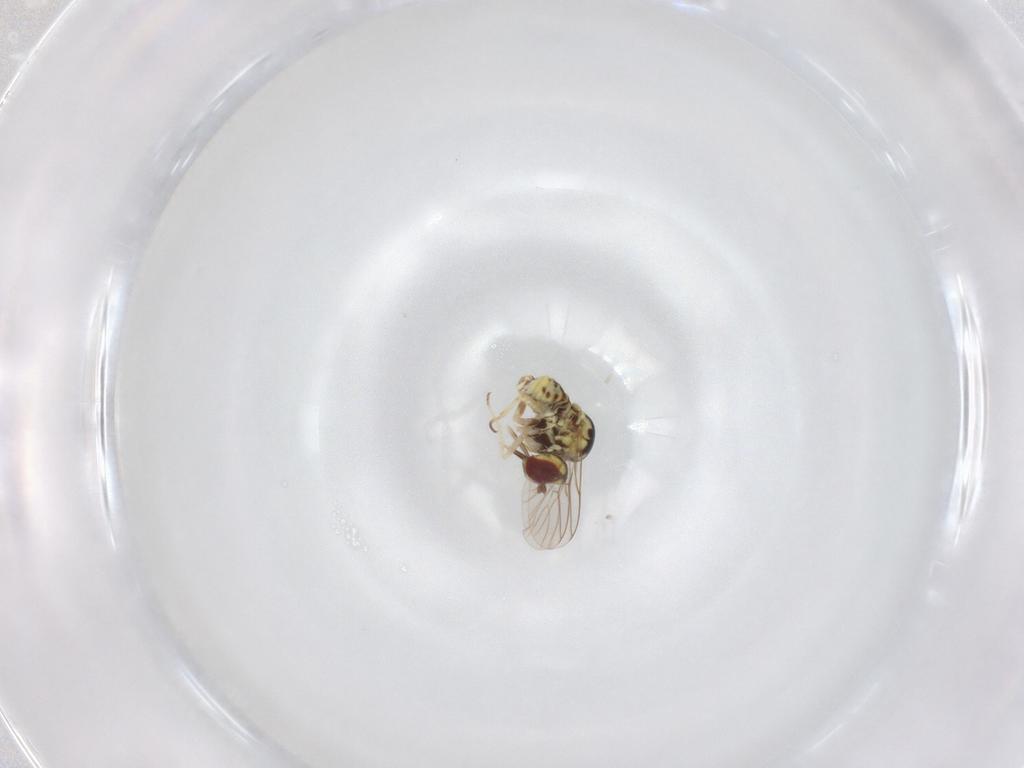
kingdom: Animalia
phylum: Arthropoda
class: Insecta
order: Diptera
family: Bombyliidae
